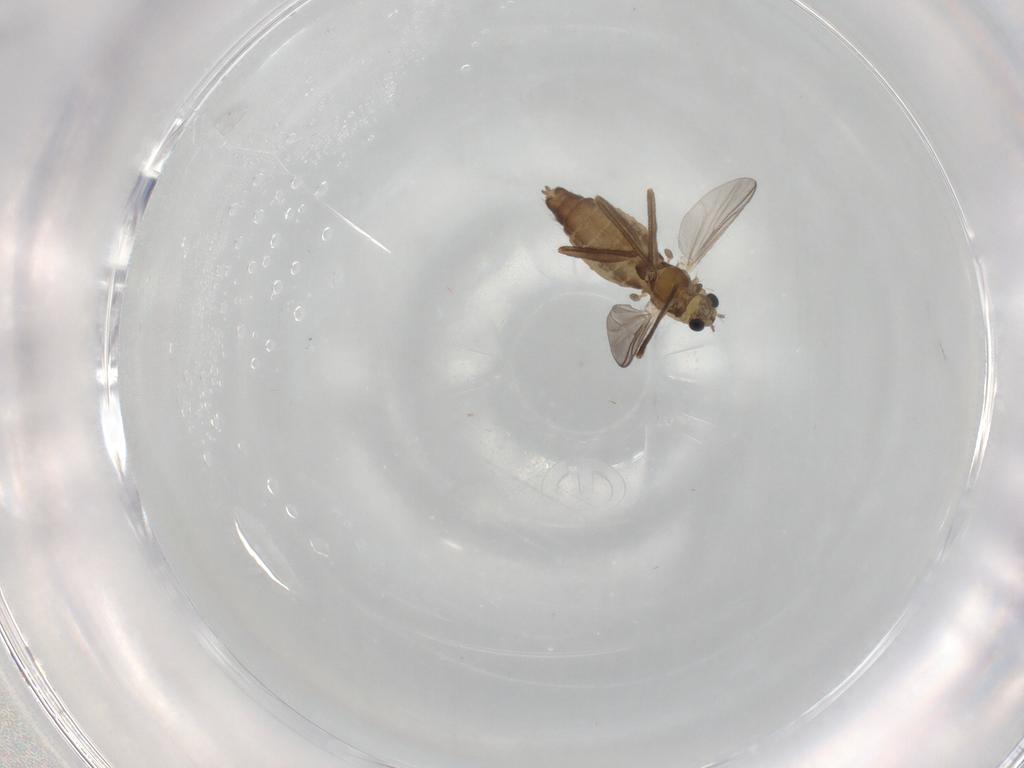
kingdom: Animalia
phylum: Arthropoda
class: Insecta
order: Diptera
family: Chironomidae
